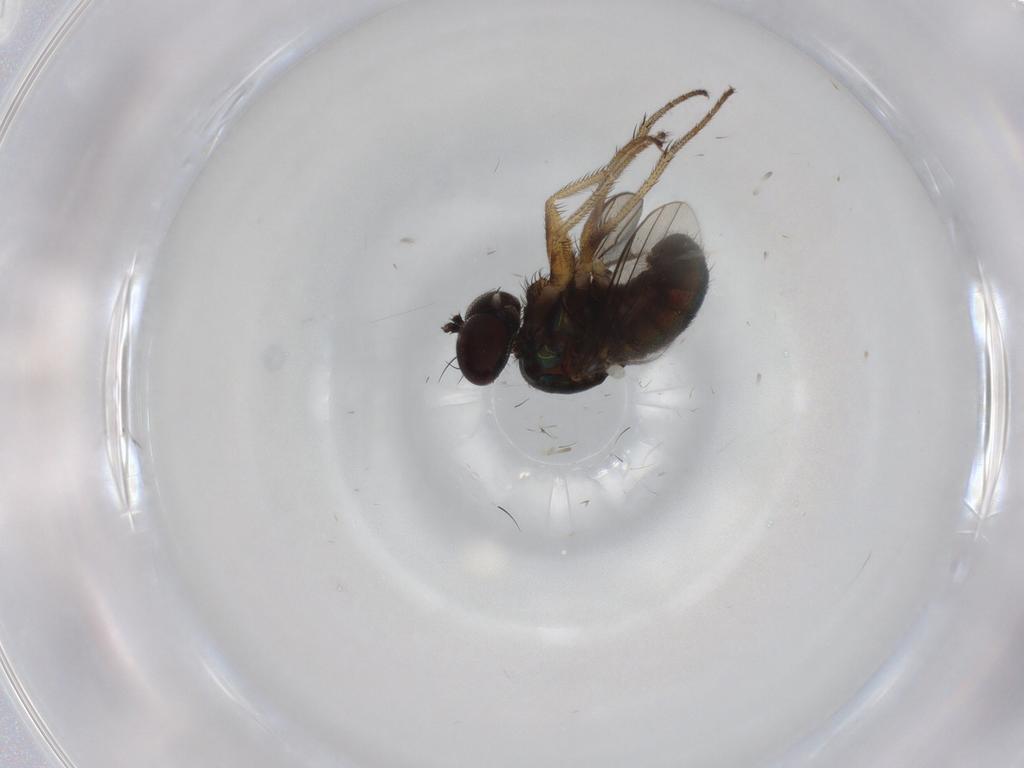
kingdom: Animalia
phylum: Arthropoda
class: Insecta
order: Diptera
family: Dolichopodidae
